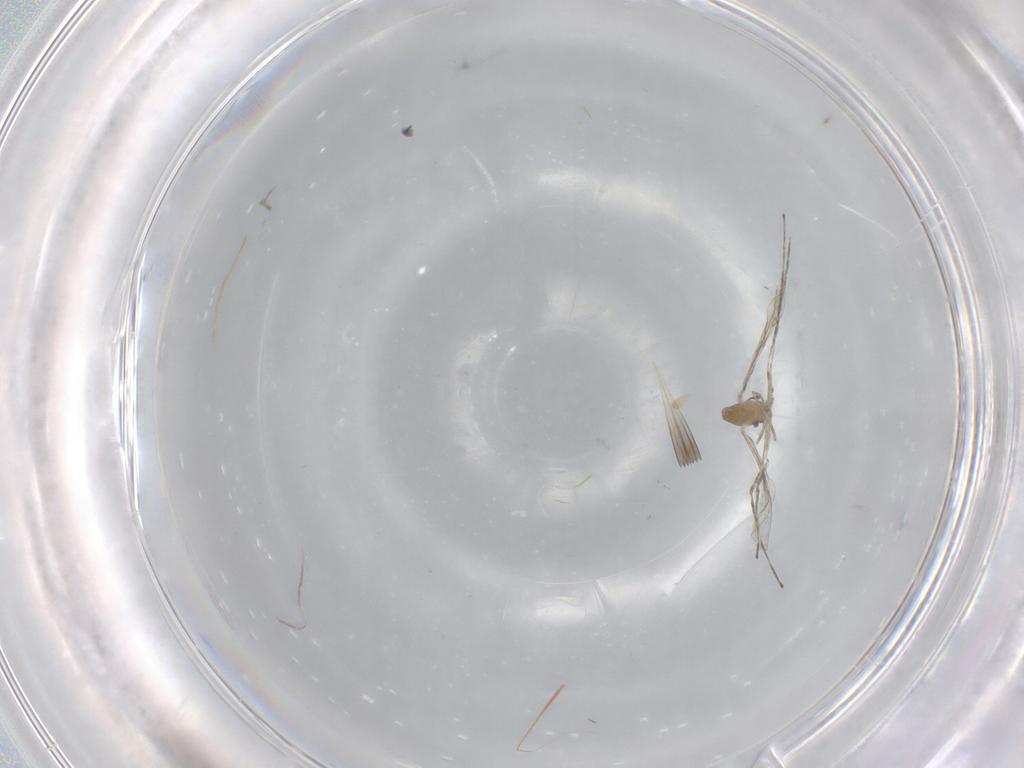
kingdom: Animalia
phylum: Arthropoda
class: Insecta
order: Diptera
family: Cecidomyiidae
